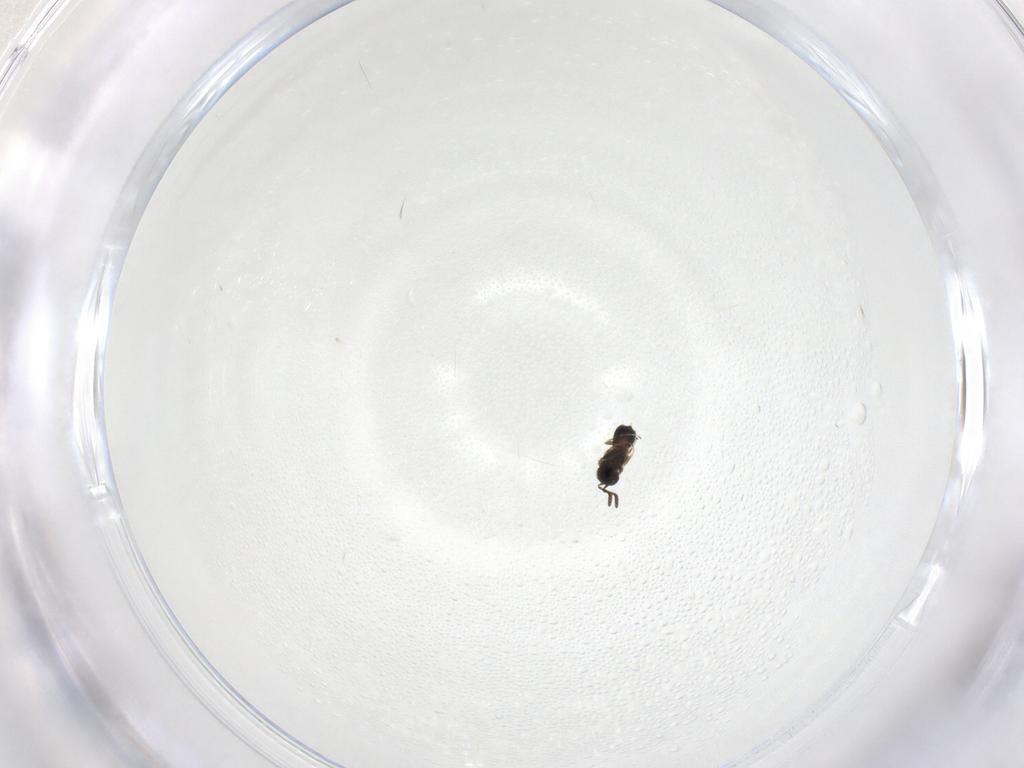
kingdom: Animalia
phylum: Arthropoda
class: Insecta
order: Hymenoptera
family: Scelionidae
